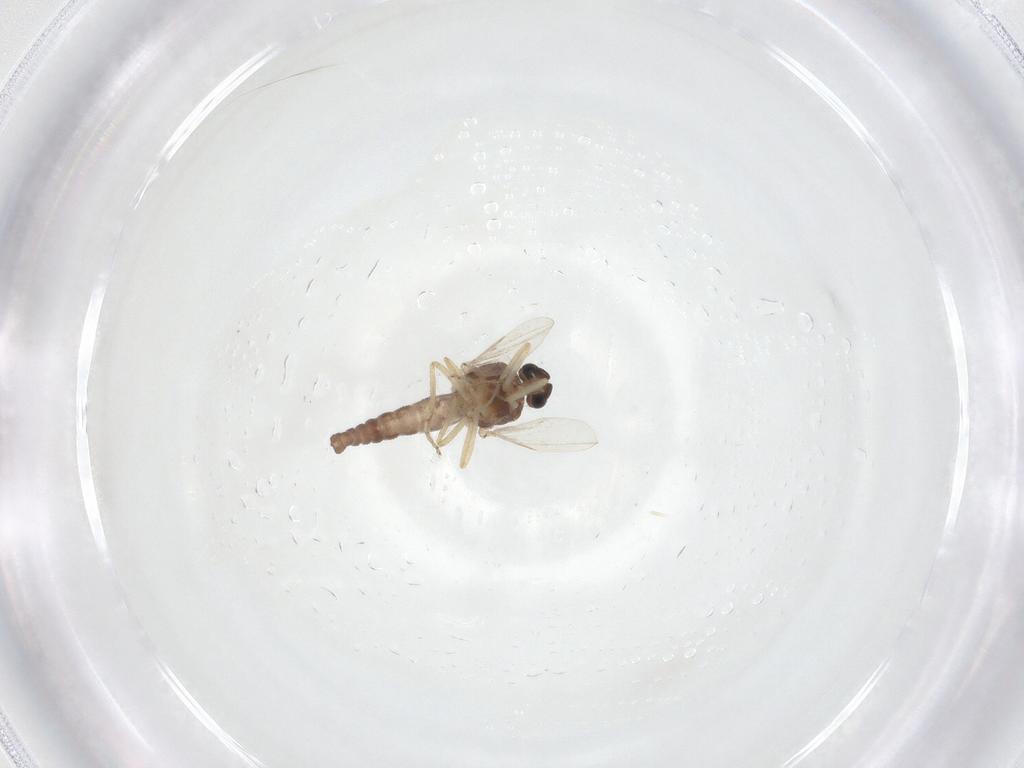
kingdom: Animalia
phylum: Arthropoda
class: Insecta
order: Diptera
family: Ceratopogonidae
